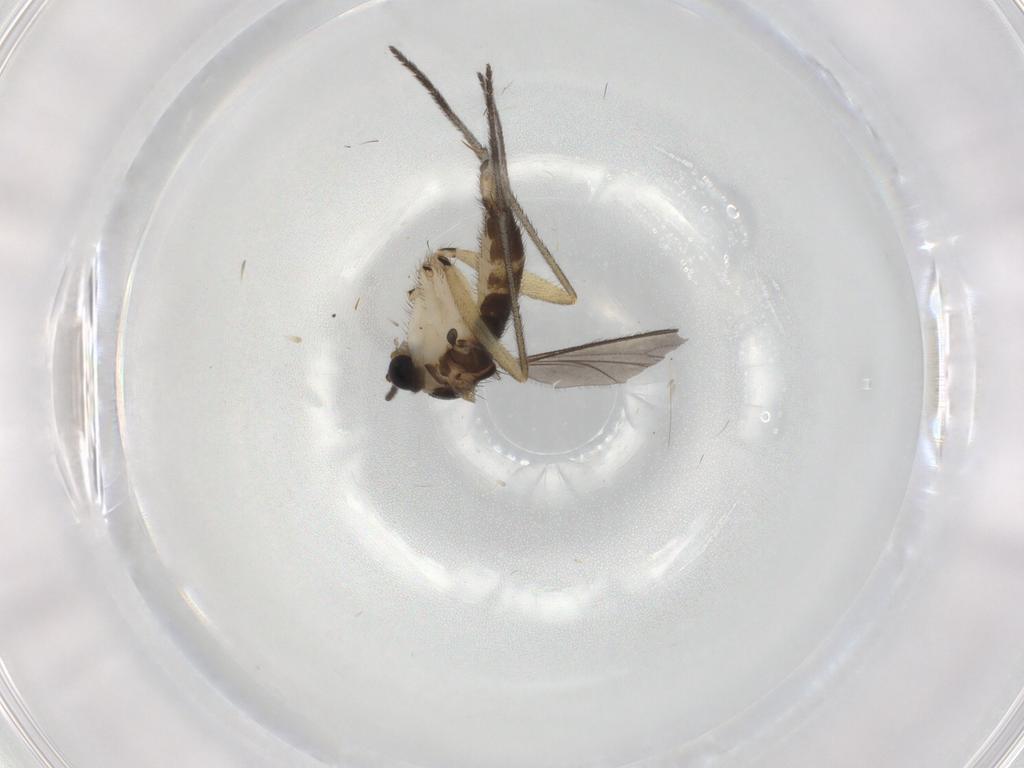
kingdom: Animalia
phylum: Arthropoda
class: Insecta
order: Diptera
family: Sciaridae
